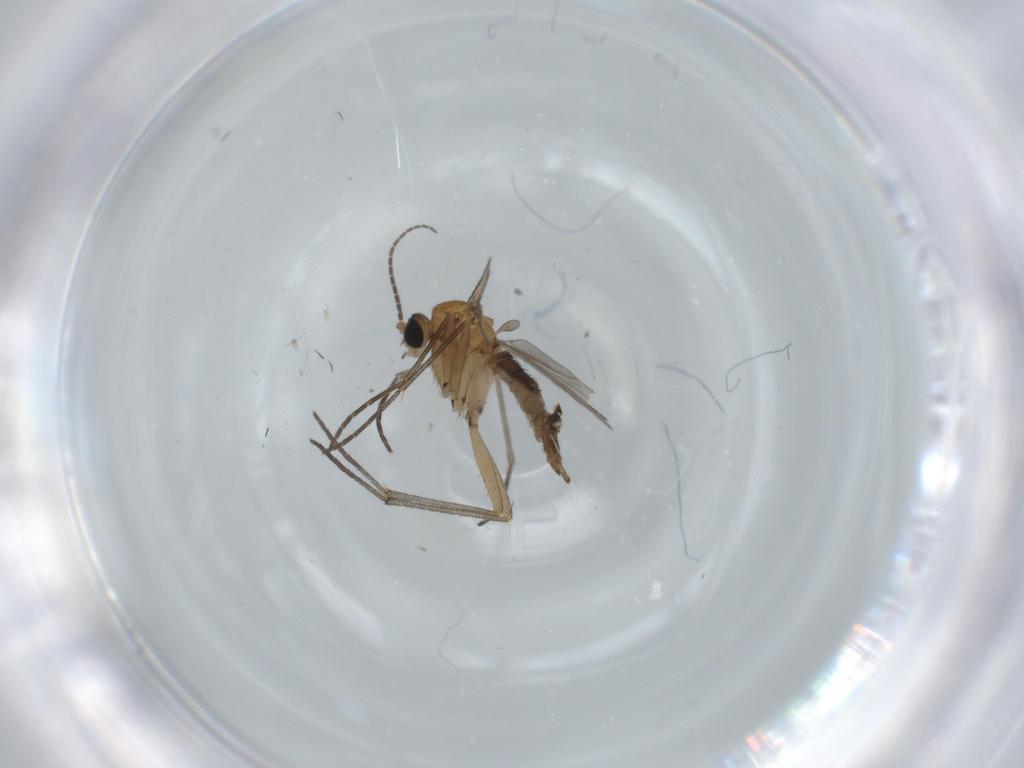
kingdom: Animalia
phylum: Arthropoda
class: Insecta
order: Diptera
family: Sciaridae
